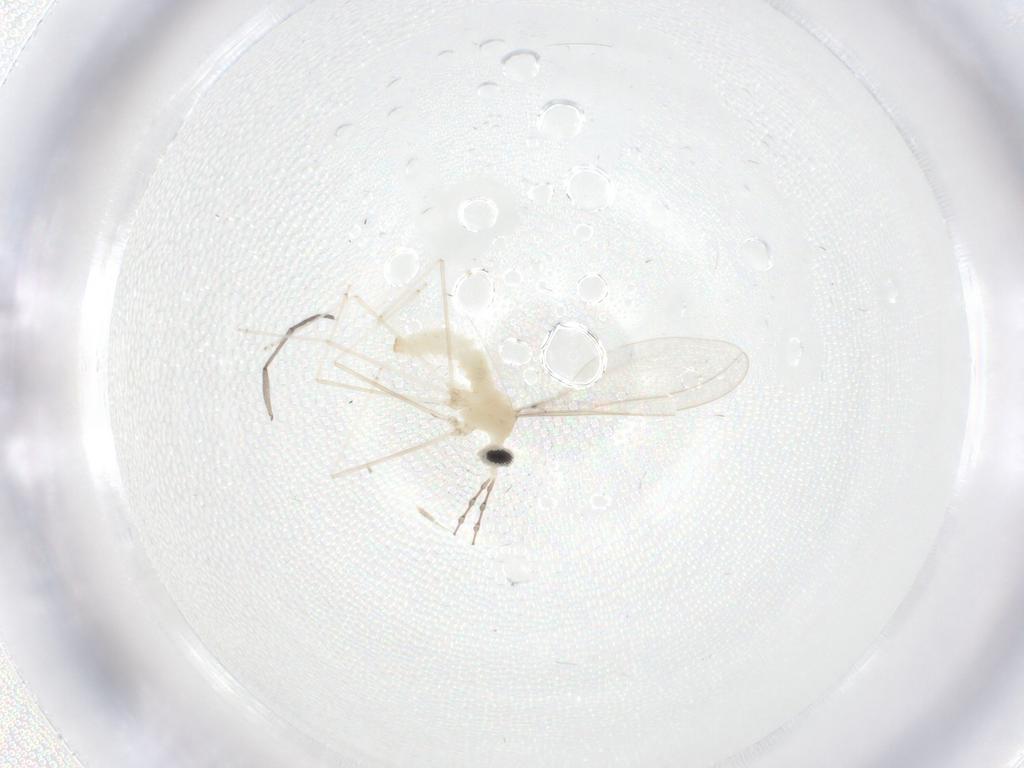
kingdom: Animalia
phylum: Arthropoda
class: Insecta
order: Diptera
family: Cecidomyiidae
